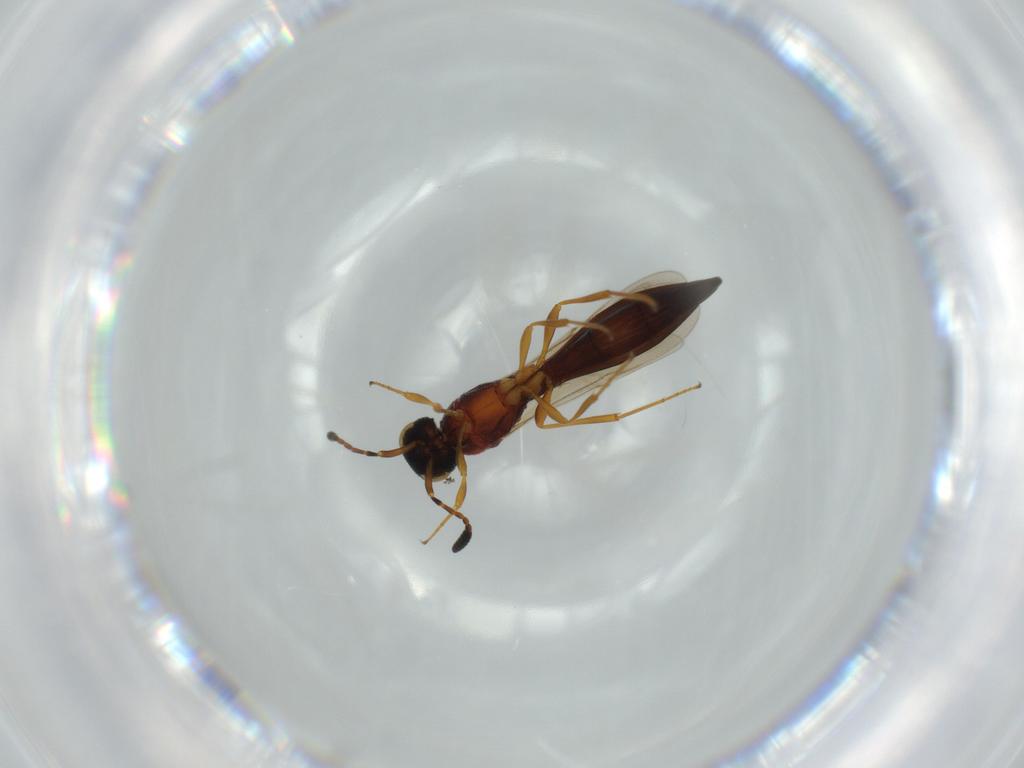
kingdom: Animalia
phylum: Arthropoda
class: Insecta
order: Hymenoptera
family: Scelionidae
